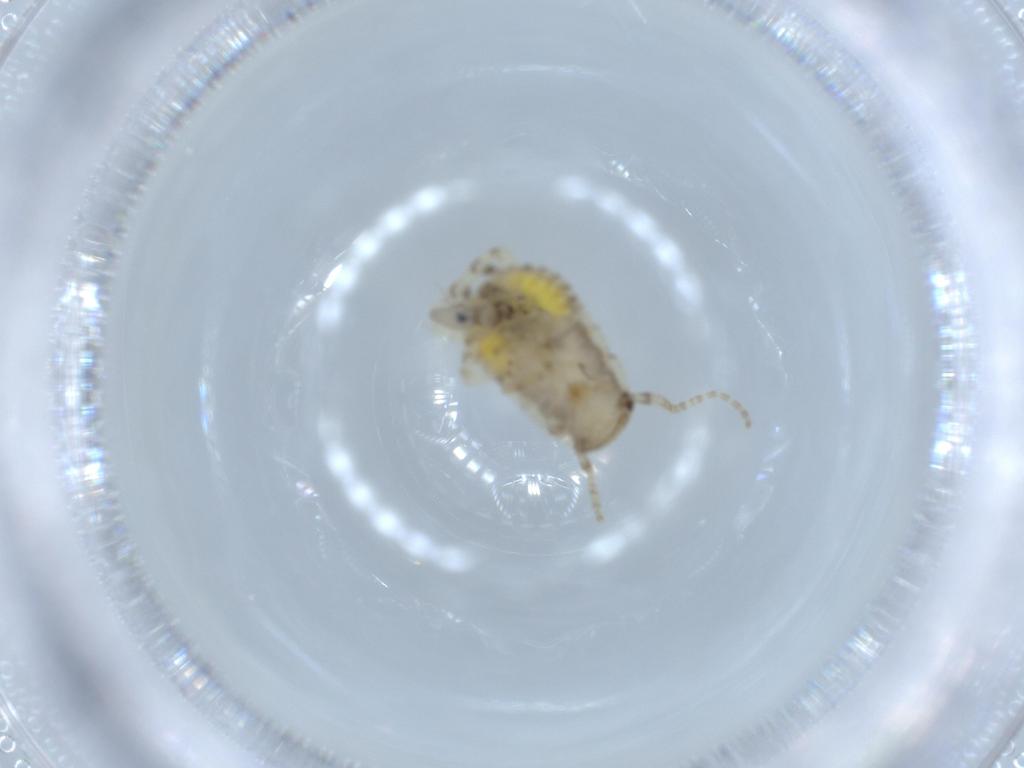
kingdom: Animalia
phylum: Arthropoda
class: Insecta
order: Blattodea
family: Ectobiidae
